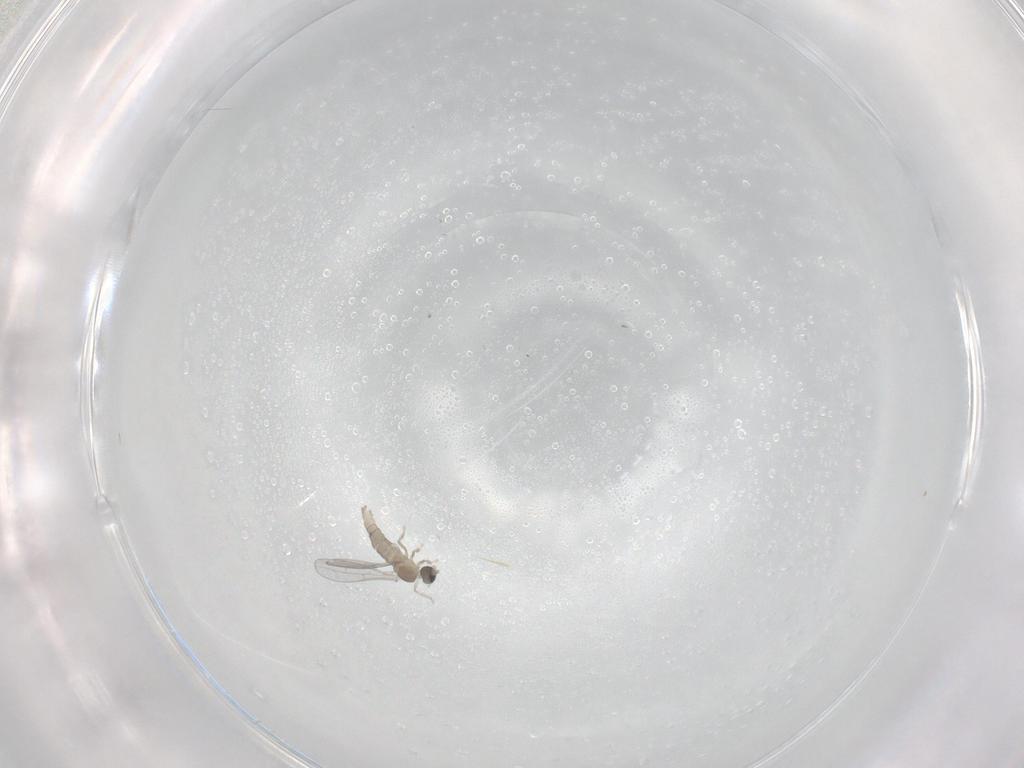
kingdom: Animalia
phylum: Arthropoda
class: Insecta
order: Diptera
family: Cecidomyiidae
